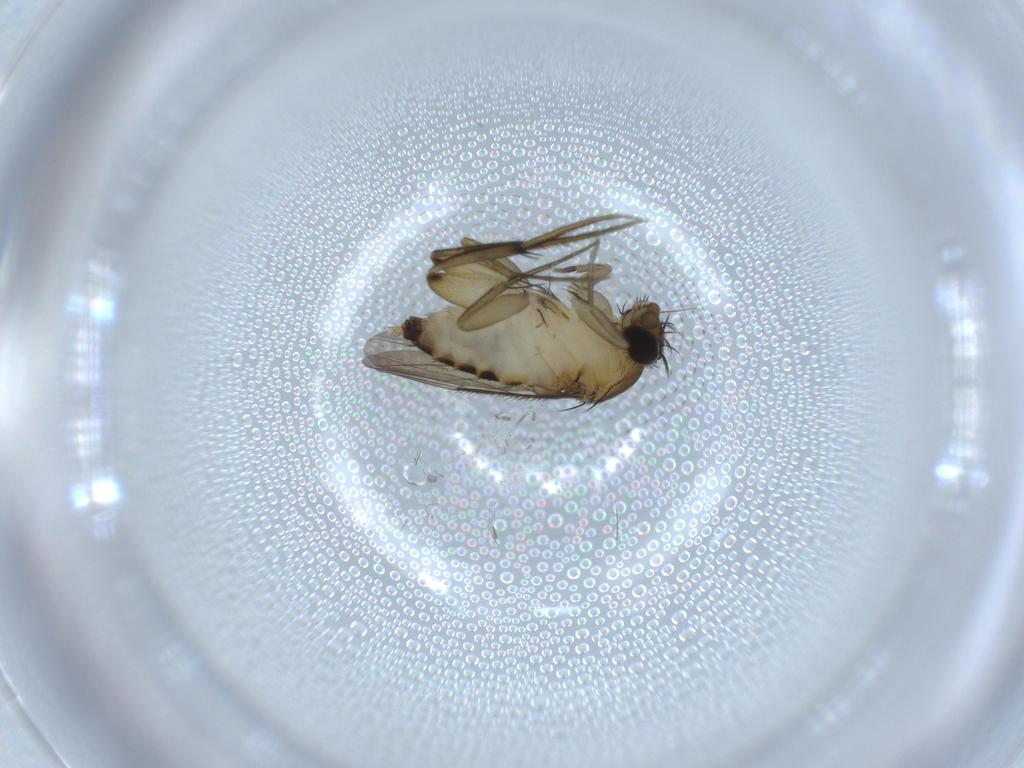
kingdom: Animalia
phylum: Arthropoda
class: Insecta
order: Diptera
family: Phoridae
